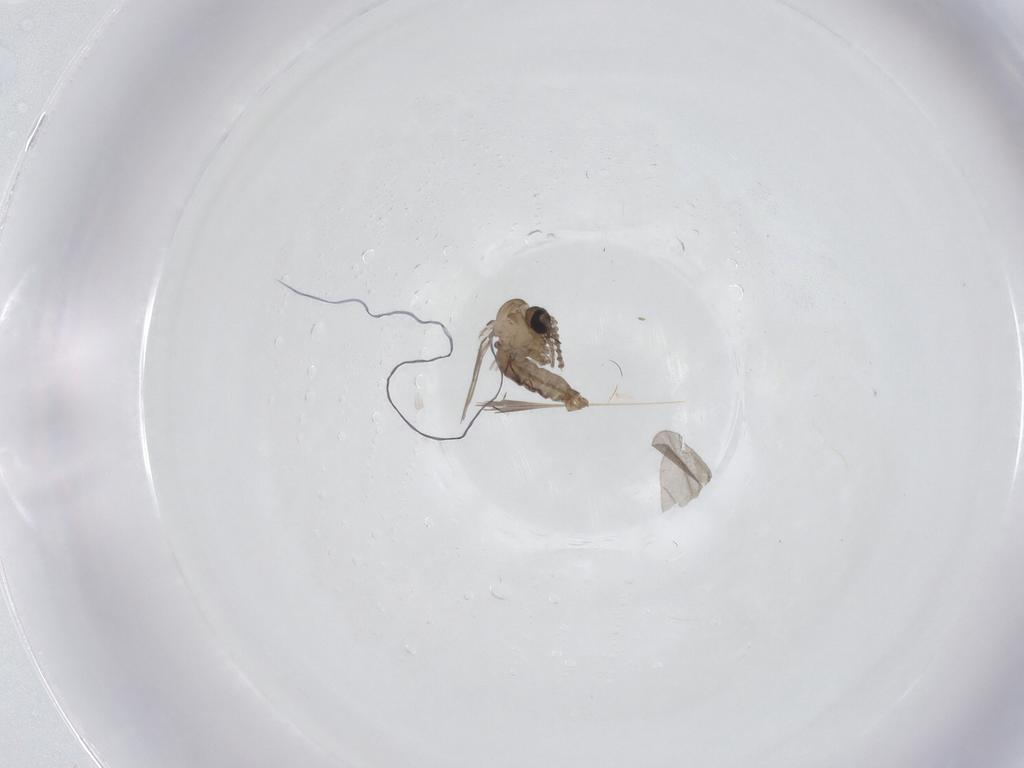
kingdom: Animalia
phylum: Arthropoda
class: Insecta
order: Diptera
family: Psychodidae
